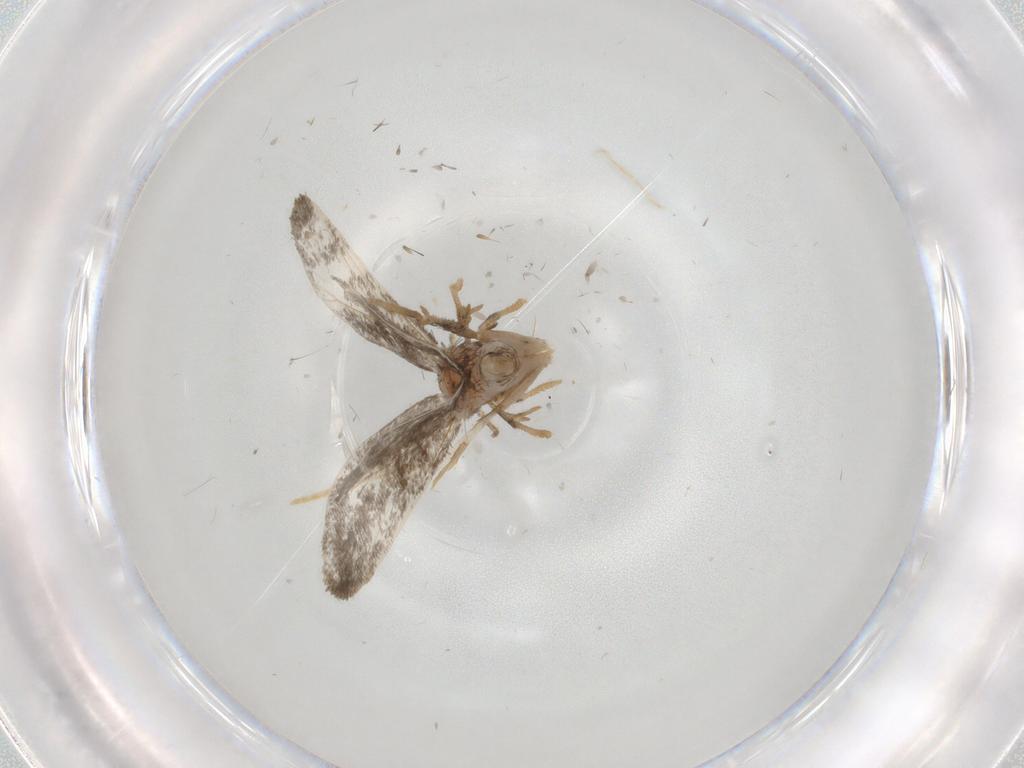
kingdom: Animalia
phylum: Arthropoda
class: Insecta
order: Lepidoptera
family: Psychidae
